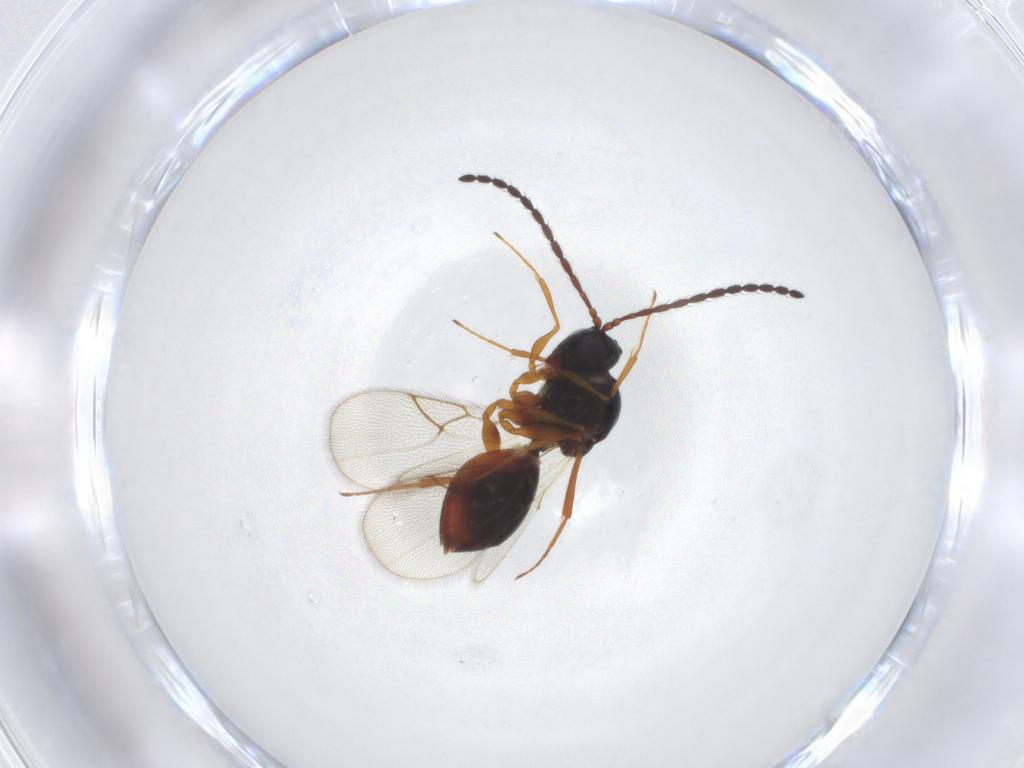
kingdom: Animalia
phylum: Arthropoda
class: Insecta
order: Hymenoptera
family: Figitidae
